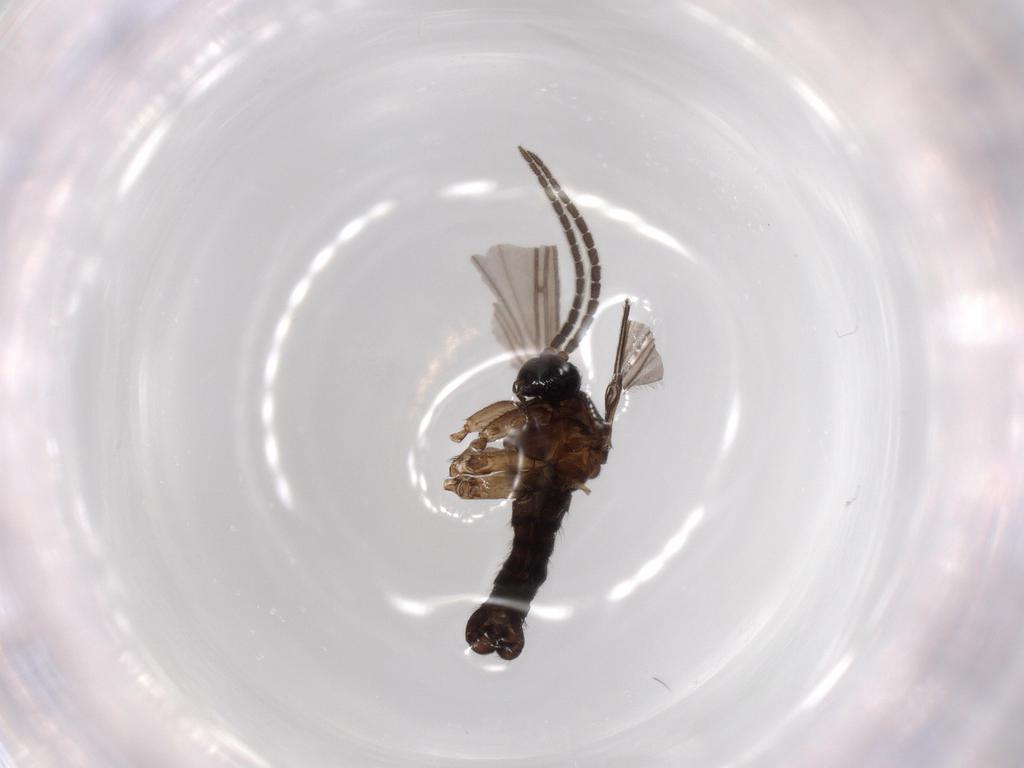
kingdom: Animalia
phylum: Arthropoda
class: Insecta
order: Diptera
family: Sciaridae
